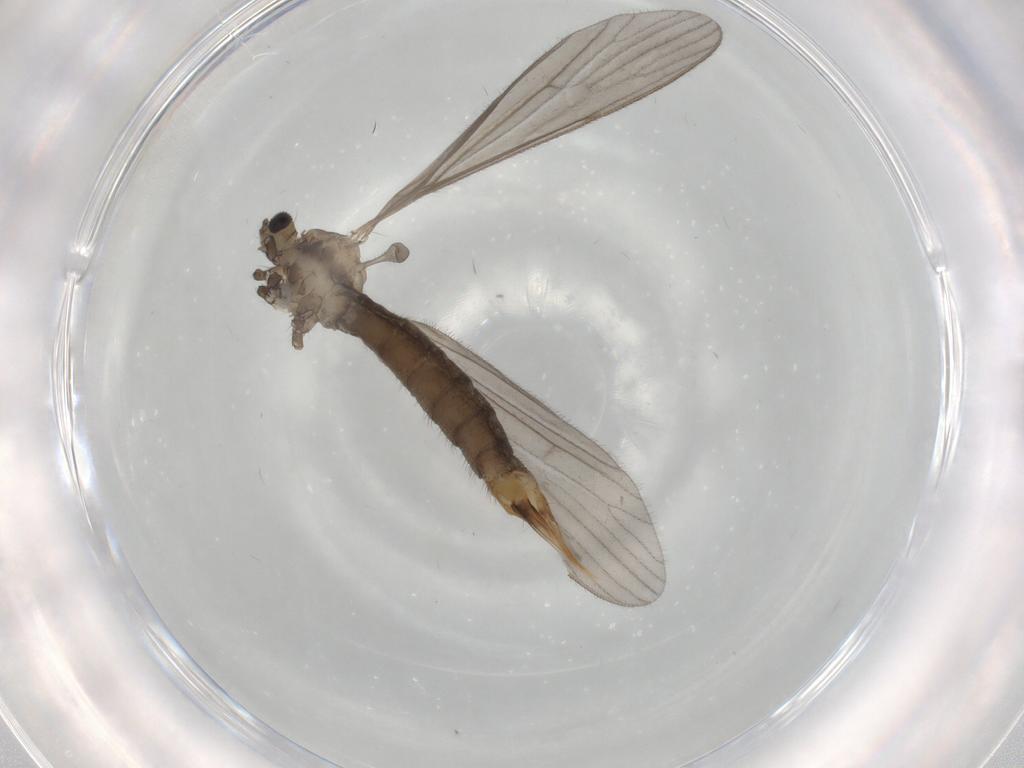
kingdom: Animalia
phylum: Arthropoda
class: Insecta
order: Diptera
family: Limoniidae
